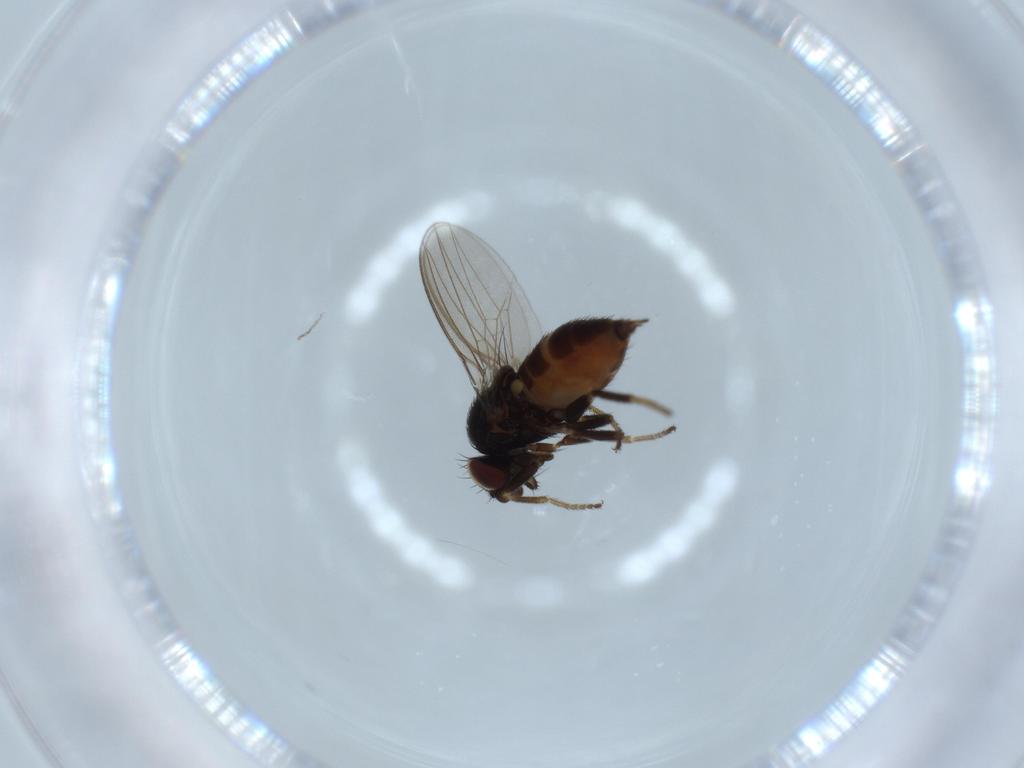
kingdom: Animalia
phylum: Arthropoda
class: Insecta
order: Diptera
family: Milichiidae
